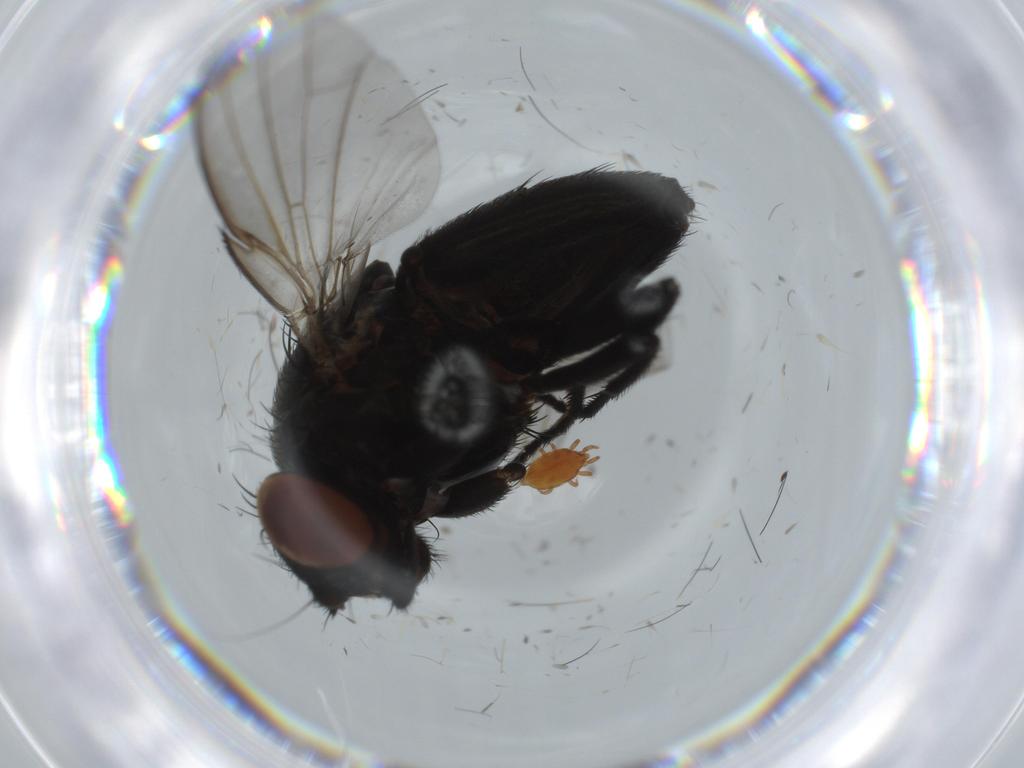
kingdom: Animalia
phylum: Arthropoda
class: Insecta
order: Diptera
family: Milichiidae
